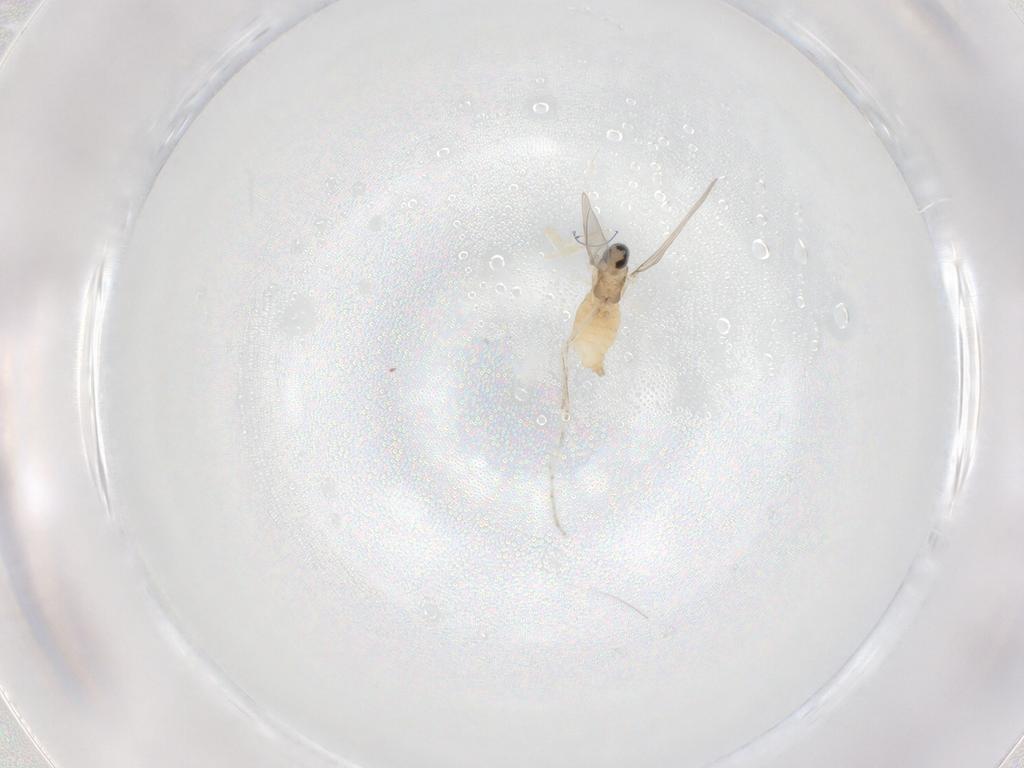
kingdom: Animalia
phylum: Arthropoda
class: Insecta
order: Diptera
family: Cecidomyiidae
